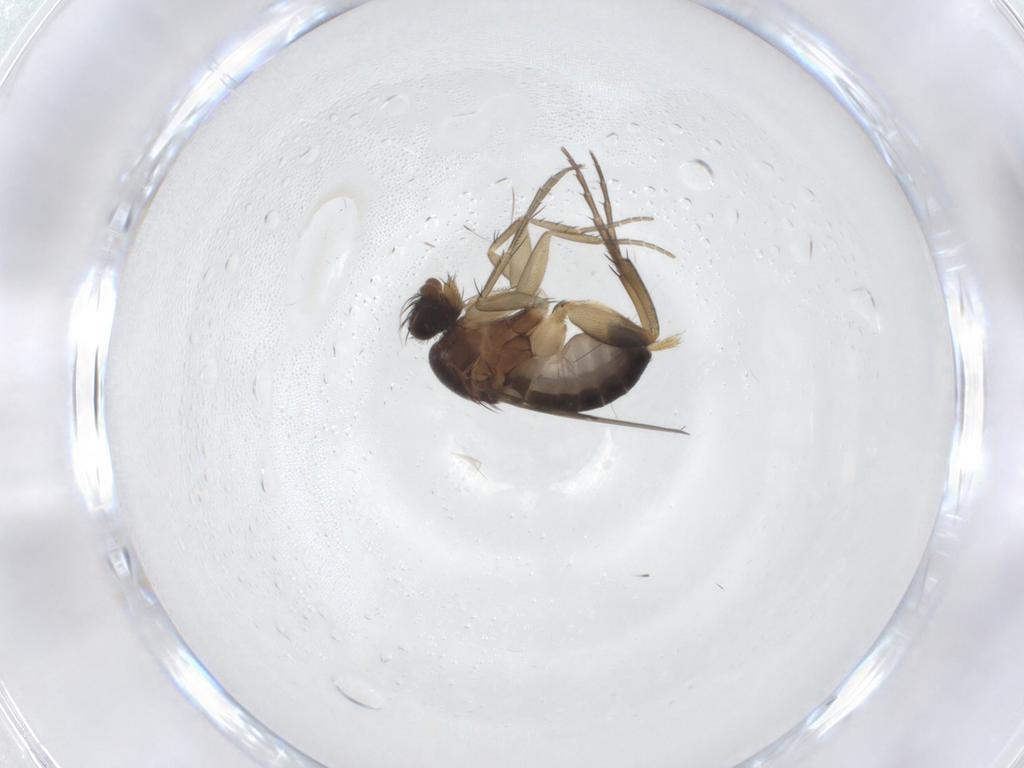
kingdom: Animalia
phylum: Arthropoda
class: Insecta
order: Diptera
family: Phoridae
